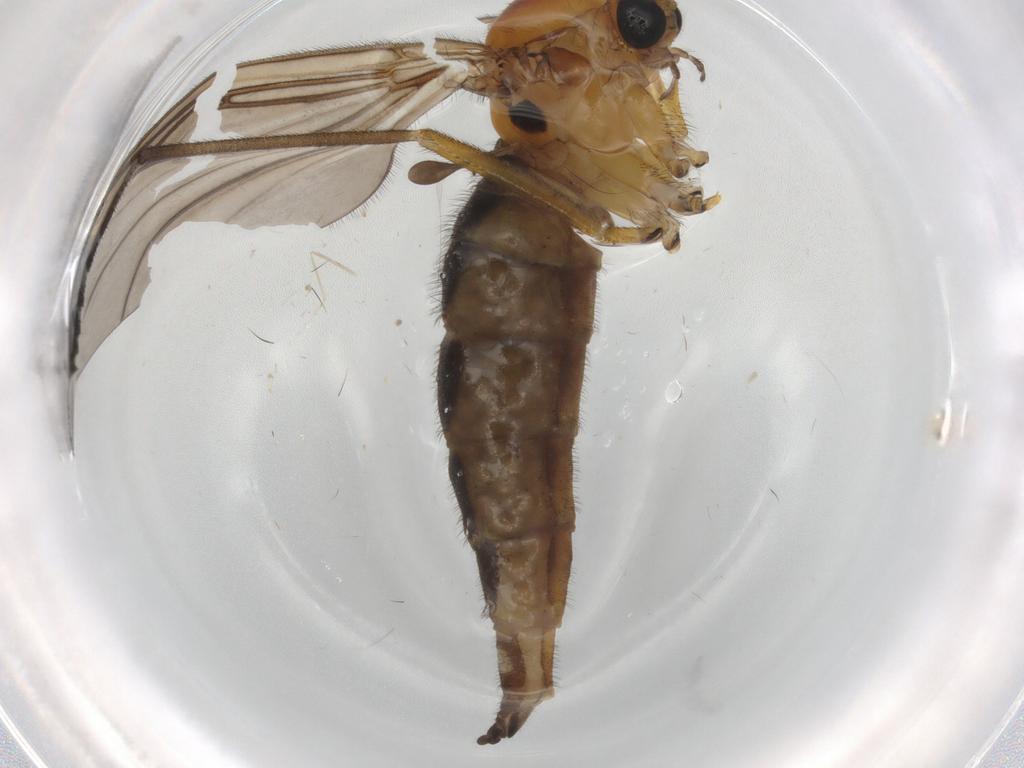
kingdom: Animalia
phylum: Arthropoda
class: Insecta
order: Diptera
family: Sciaridae
